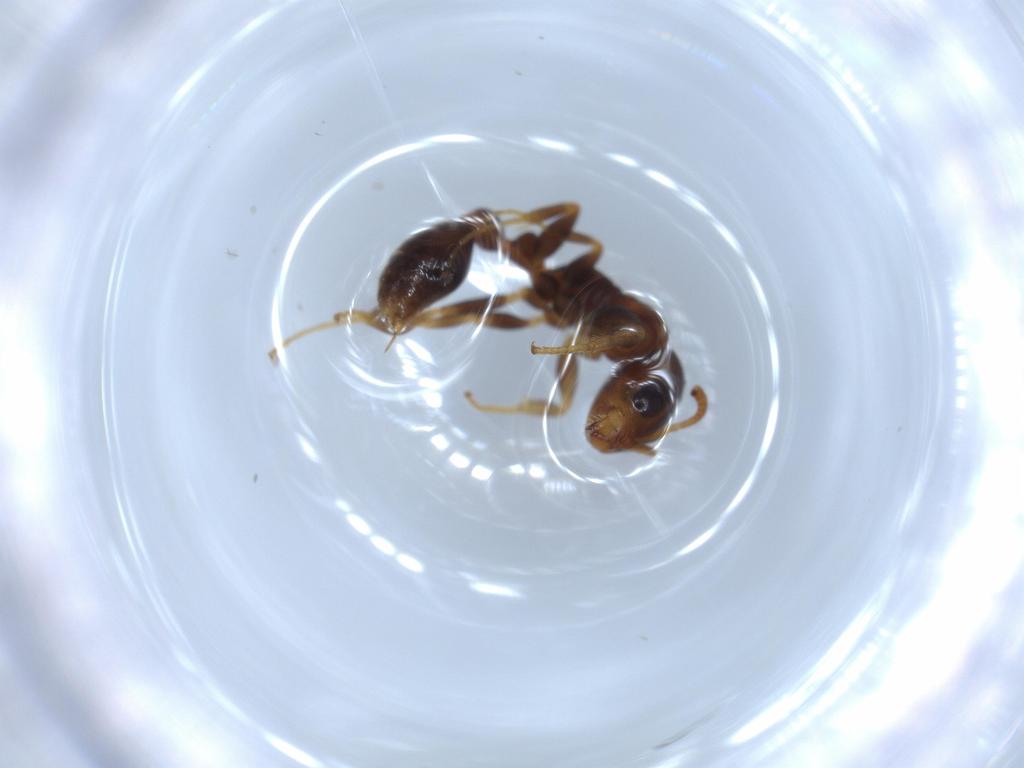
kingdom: Animalia
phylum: Arthropoda
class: Insecta
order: Hymenoptera
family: Formicidae
